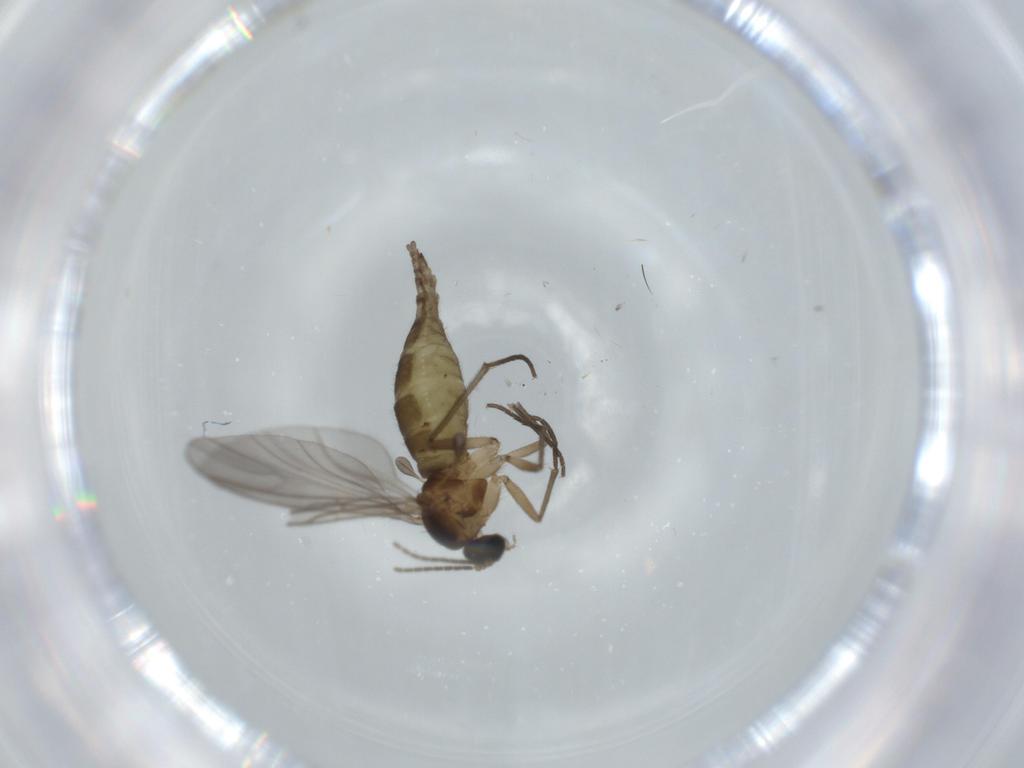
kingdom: Animalia
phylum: Arthropoda
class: Insecta
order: Diptera
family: Sciaridae
